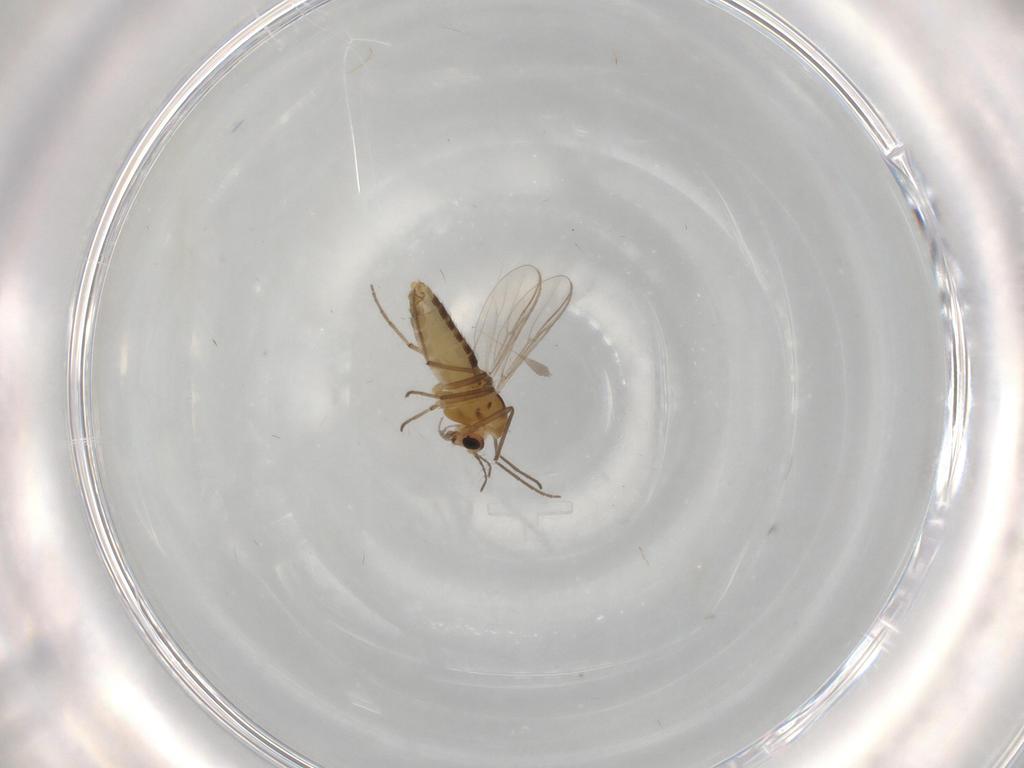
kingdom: Animalia
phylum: Arthropoda
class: Insecta
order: Diptera
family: Chironomidae
